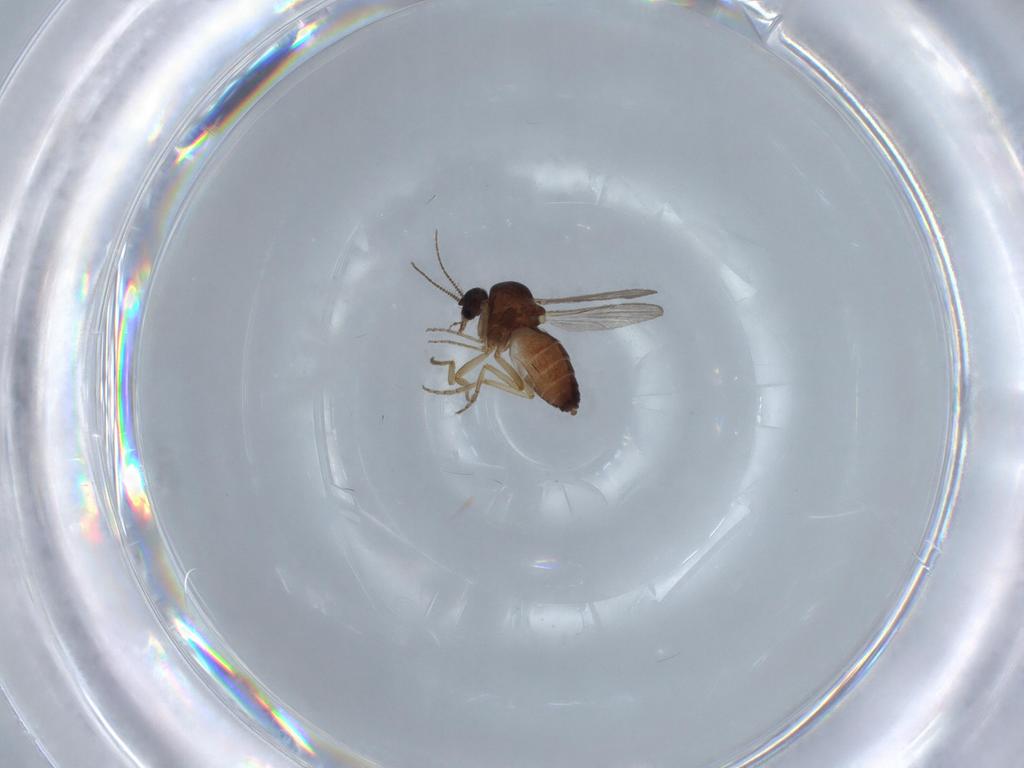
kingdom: Animalia
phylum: Arthropoda
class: Insecta
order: Diptera
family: Ceratopogonidae
